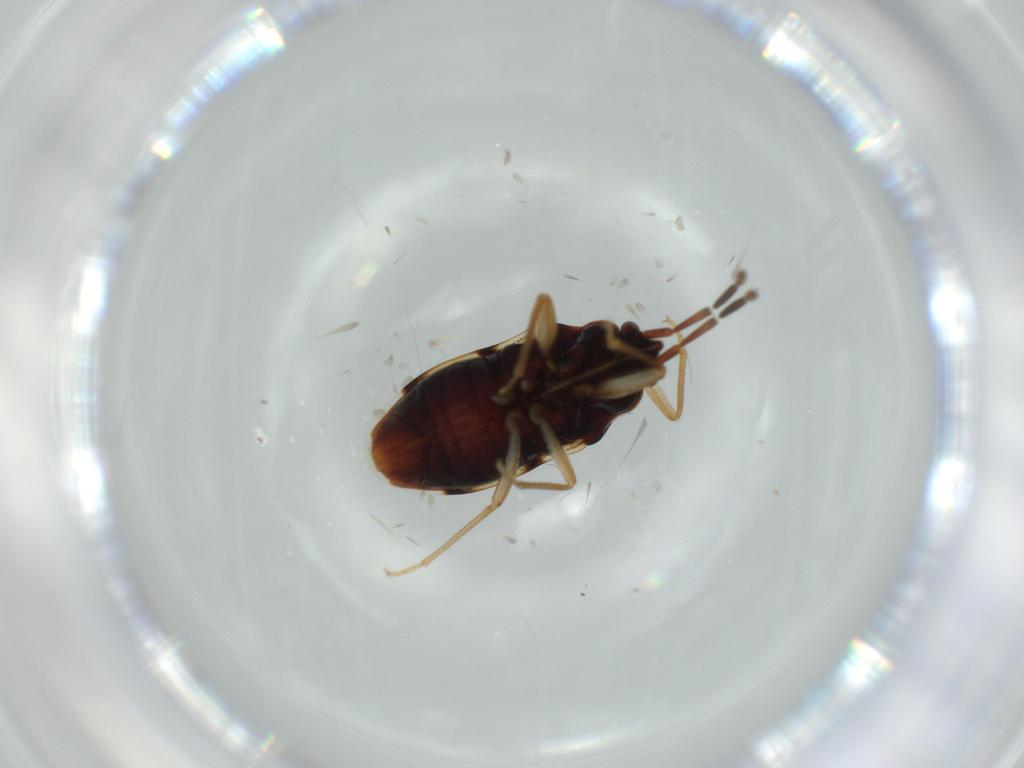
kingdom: Animalia
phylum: Arthropoda
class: Insecta
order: Hemiptera
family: Rhyparochromidae
